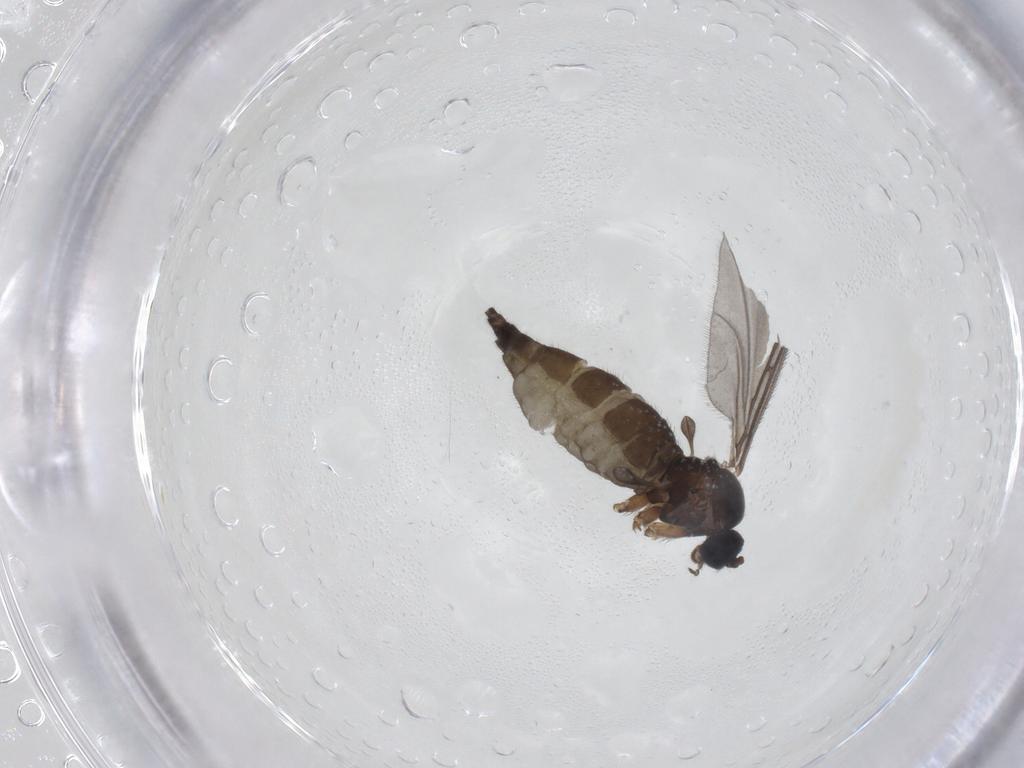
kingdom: Animalia
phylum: Arthropoda
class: Insecta
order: Diptera
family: Sciaridae
